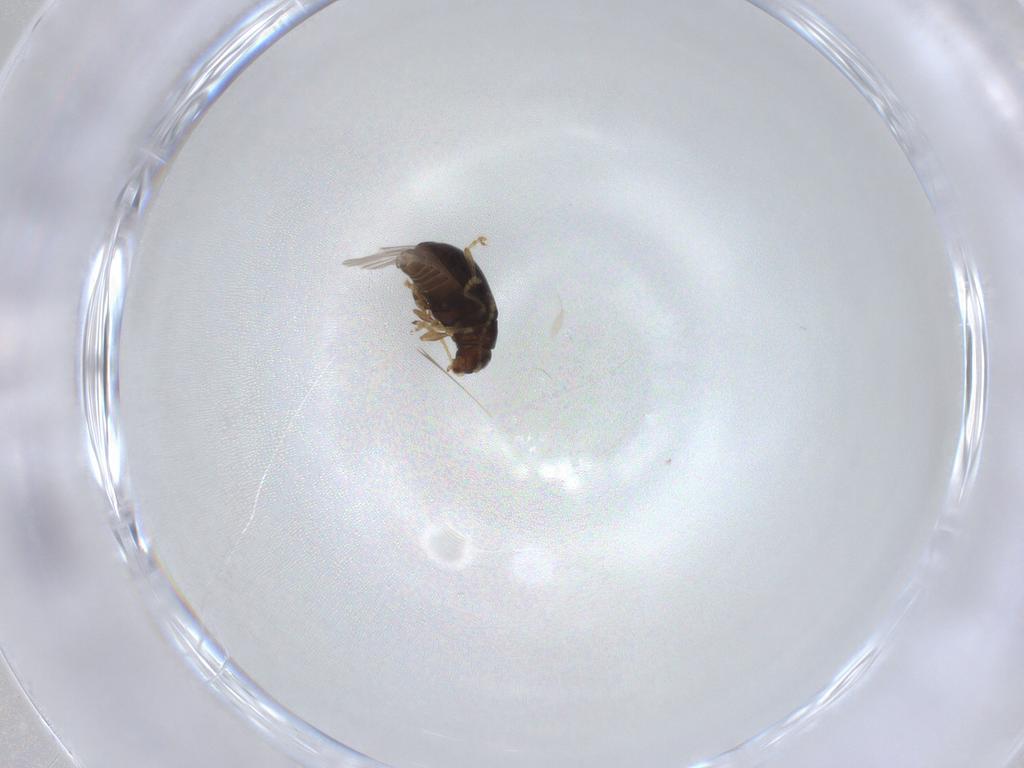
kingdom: Animalia
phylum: Arthropoda
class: Insecta
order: Coleoptera
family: Chrysomelidae
